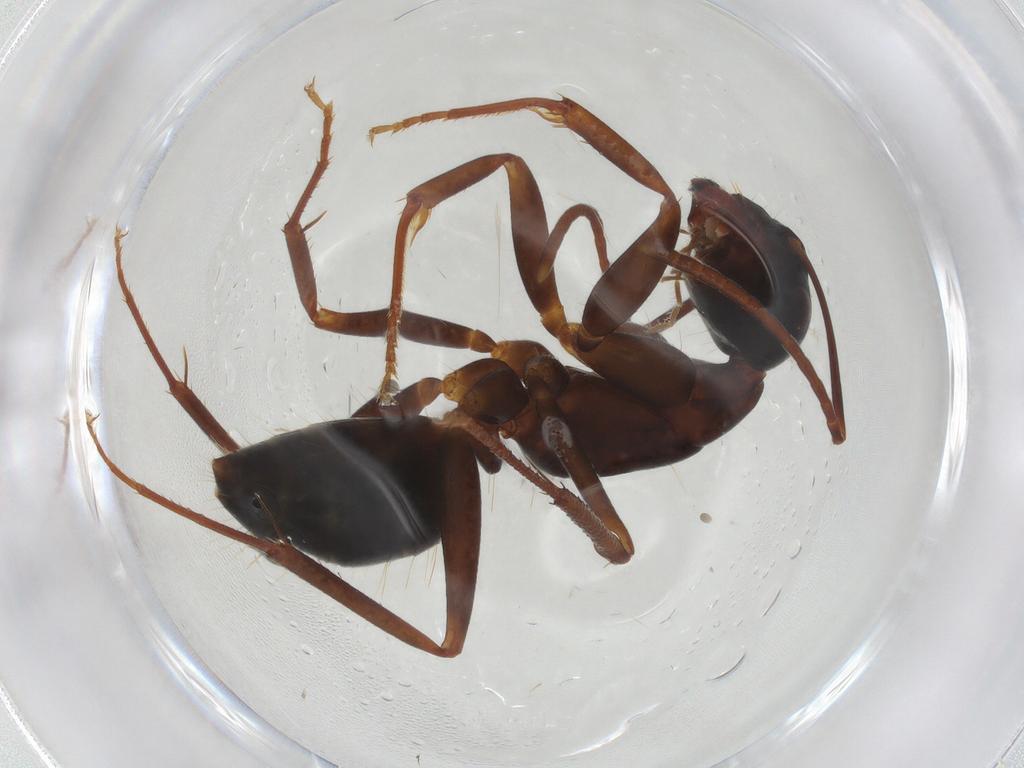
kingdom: Animalia
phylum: Arthropoda
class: Insecta
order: Hymenoptera
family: Formicidae
